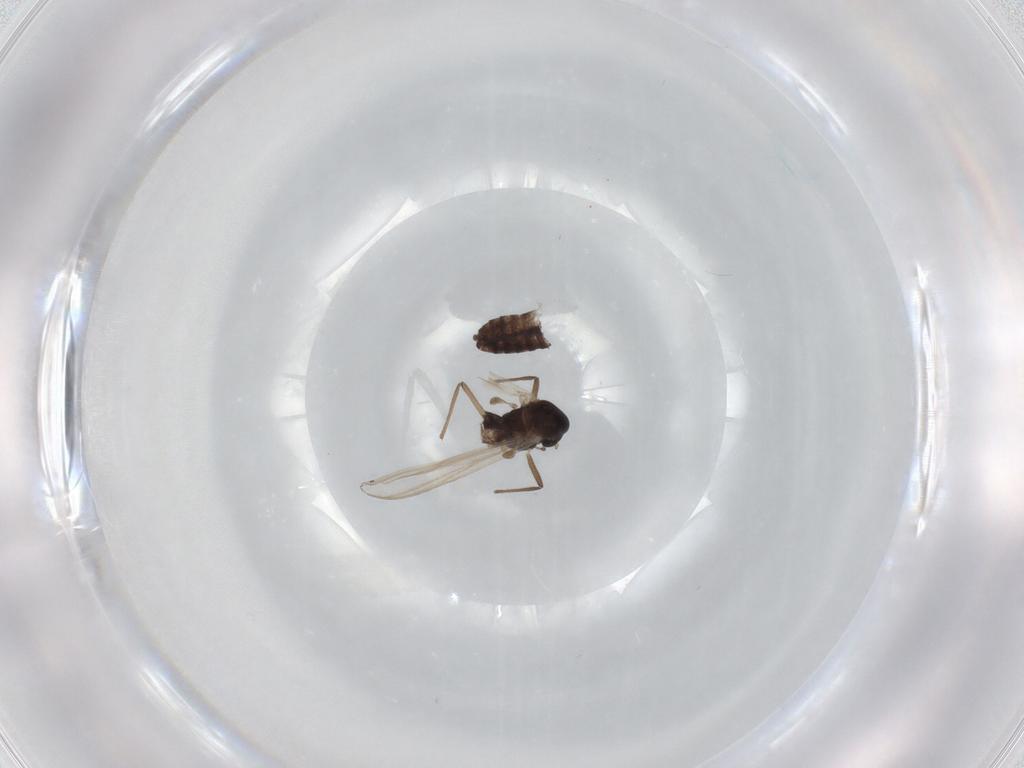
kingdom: Animalia
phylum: Arthropoda
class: Insecta
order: Diptera
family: Chironomidae
